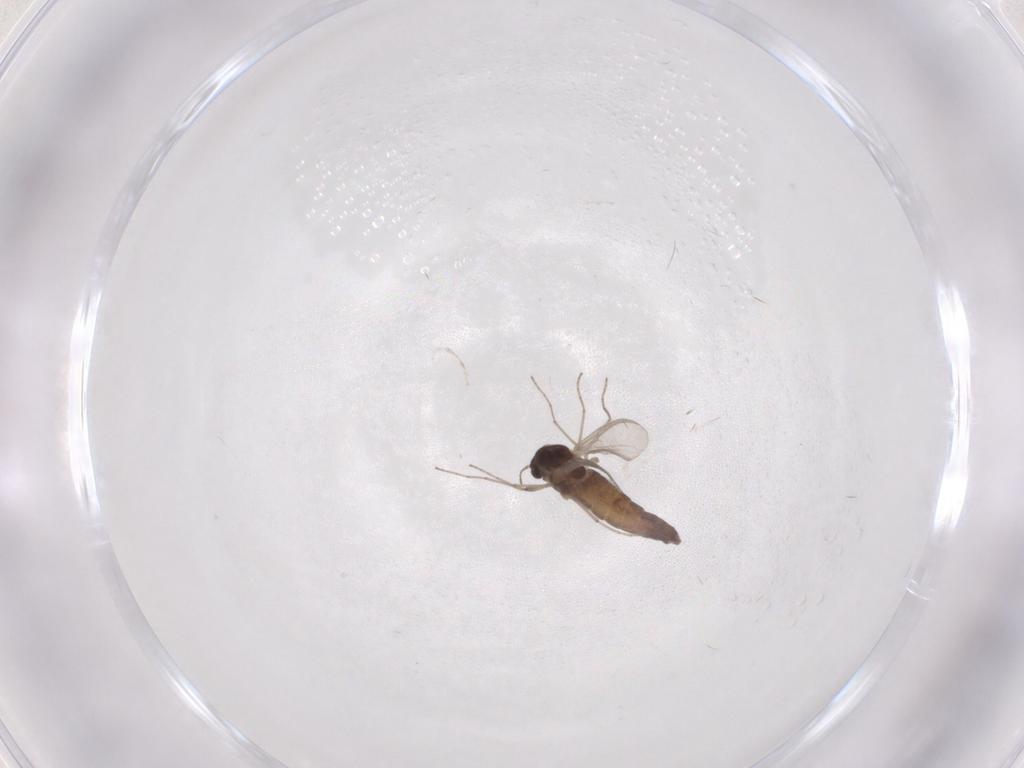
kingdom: Animalia
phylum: Arthropoda
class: Insecta
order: Diptera
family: Chironomidae
